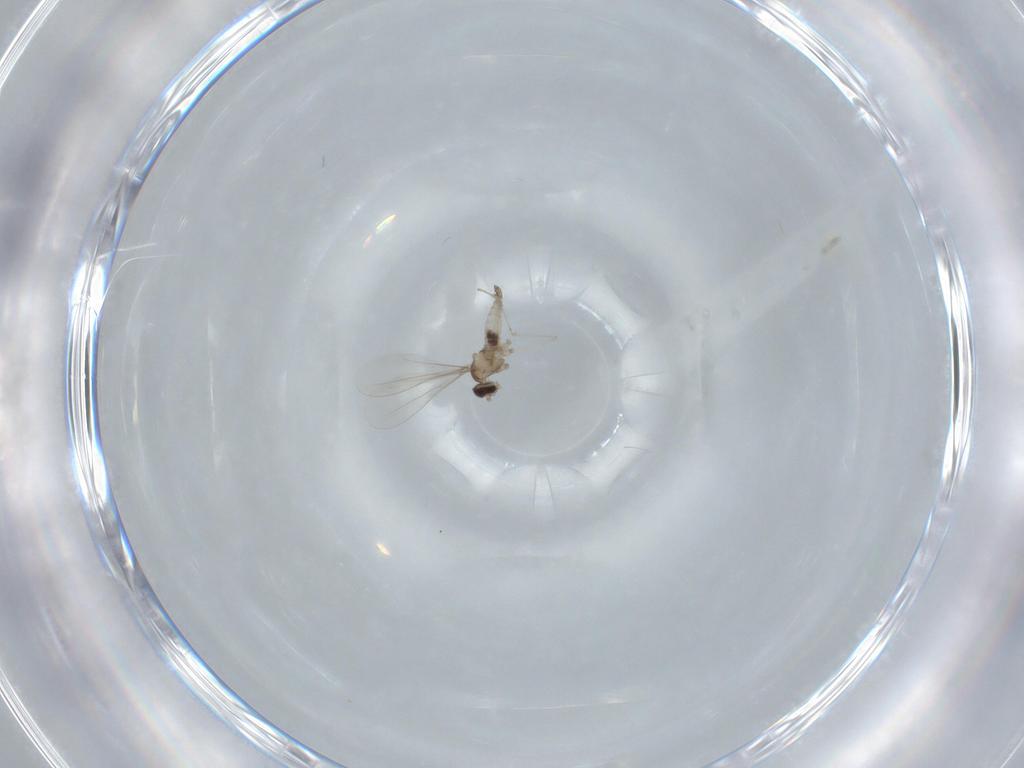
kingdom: Animalia
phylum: Arthropoda
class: Insecta
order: Diptera
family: Cecidomyiidae
